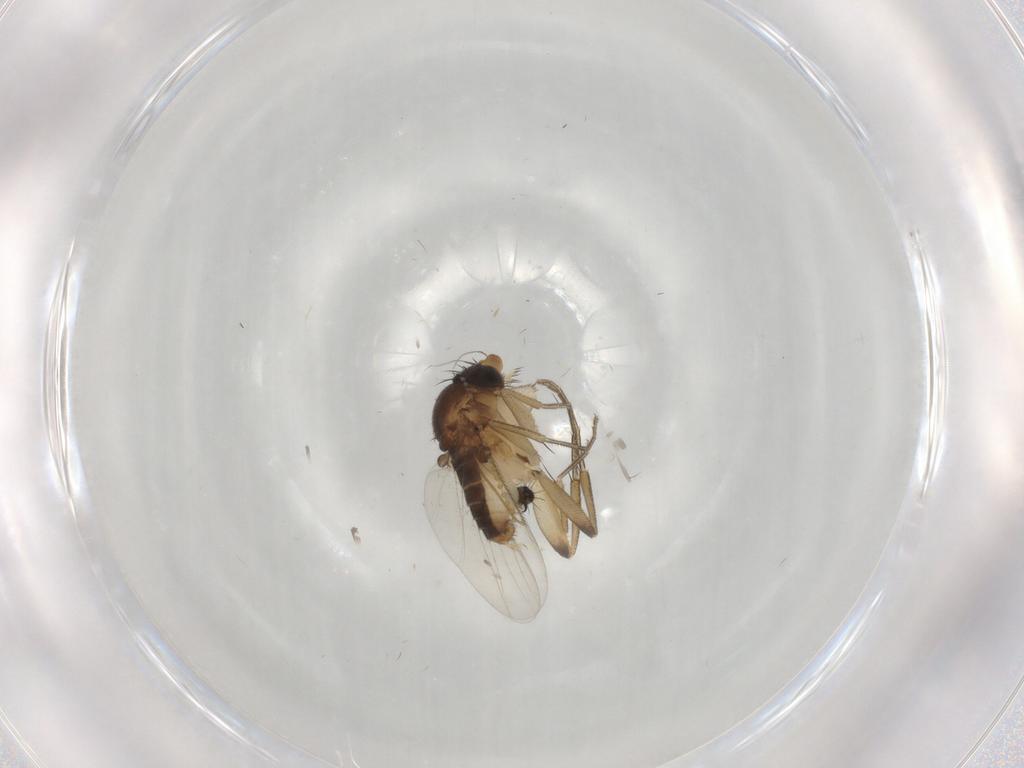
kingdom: Animalia
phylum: Arthropoda
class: Insecta
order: Diptera
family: Phoridae
